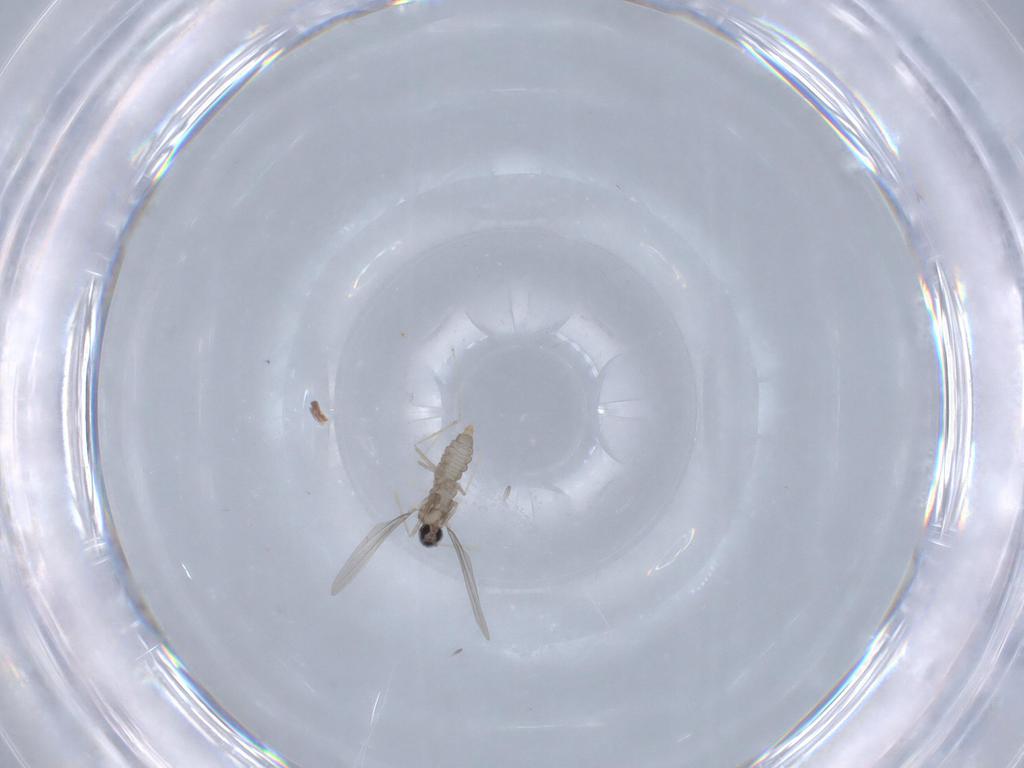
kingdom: Animalia
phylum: Arthropoda
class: Insecta
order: Diptera
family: Cecidomyiidae
